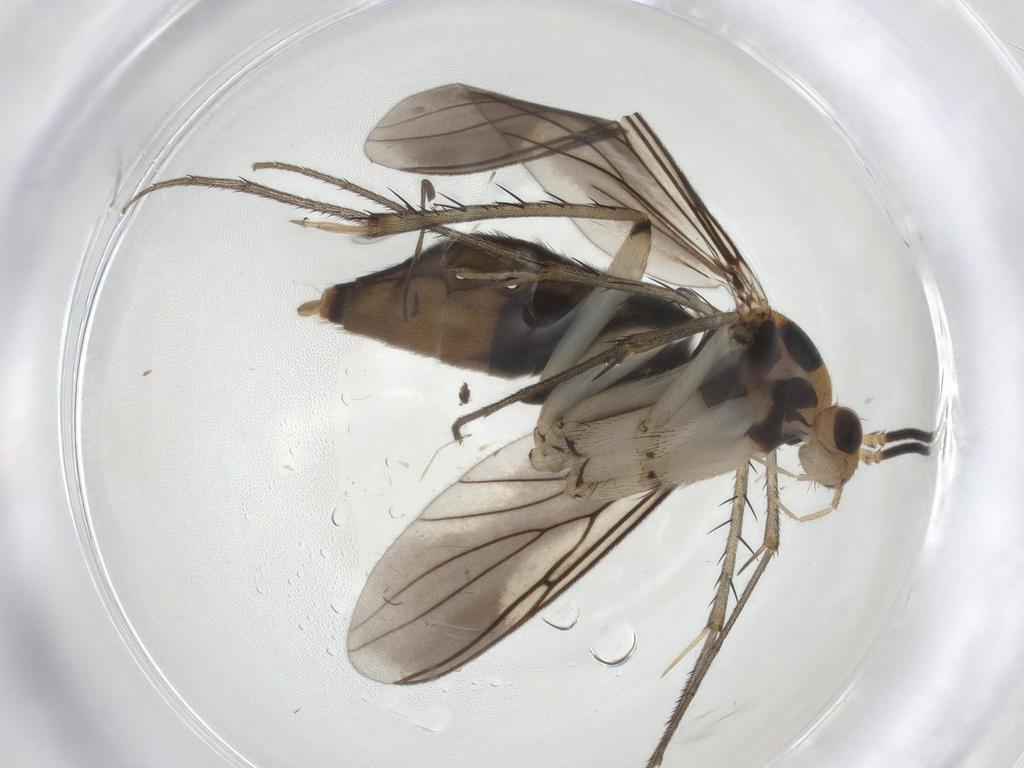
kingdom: Animalia
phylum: Arthropoda
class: Insecta
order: Diptera
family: Mycetophilidae
